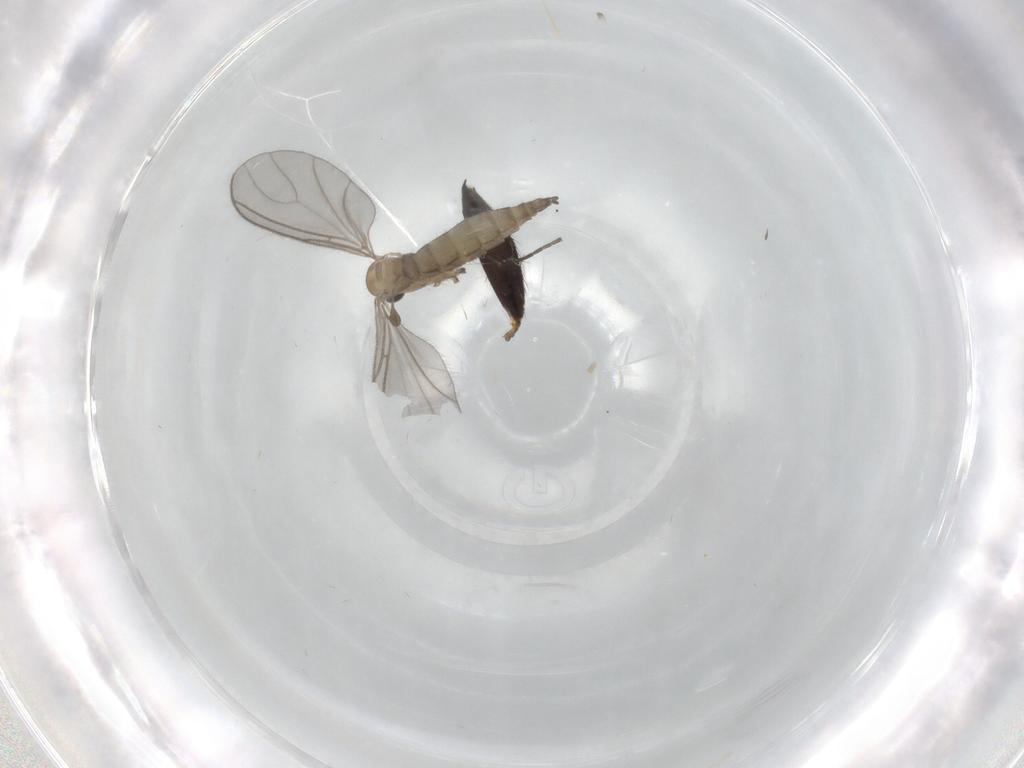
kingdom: Animalia
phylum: Arthropoda
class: Insecta
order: Diptera
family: Mycetophilidae
